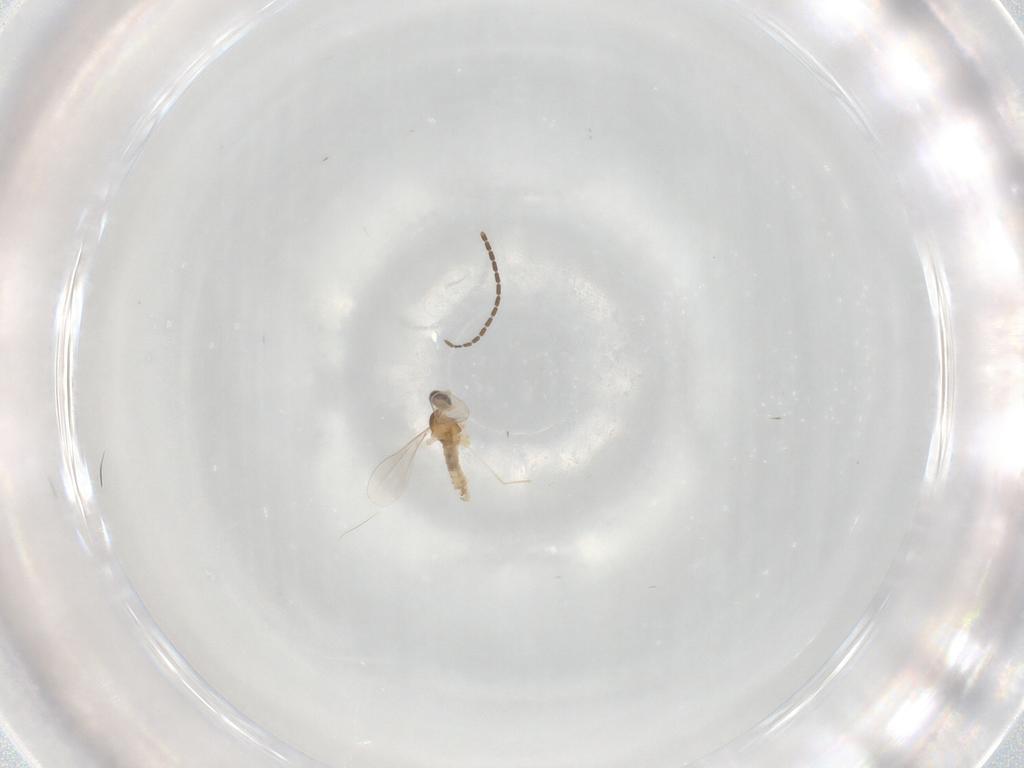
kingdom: Animalia
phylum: Arthropoda
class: Insecta
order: Diptera
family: Cecidomyiidae
